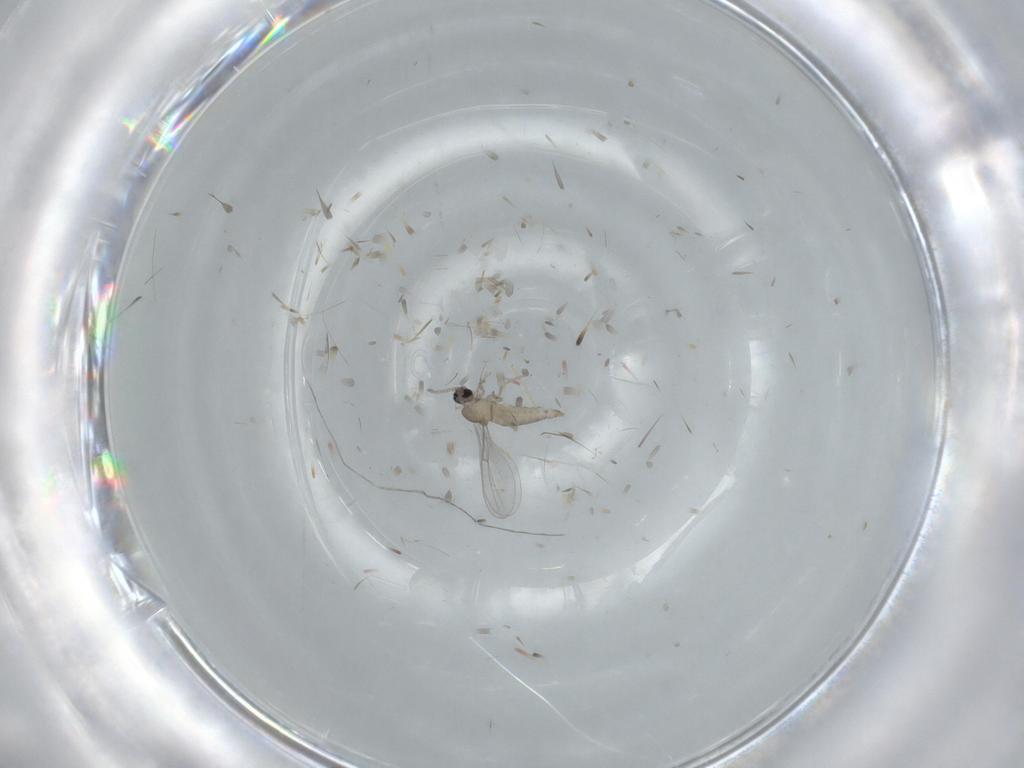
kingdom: Animalia
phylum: Arthropoda
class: Insecta
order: Diptera
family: Cecidomyiidae
